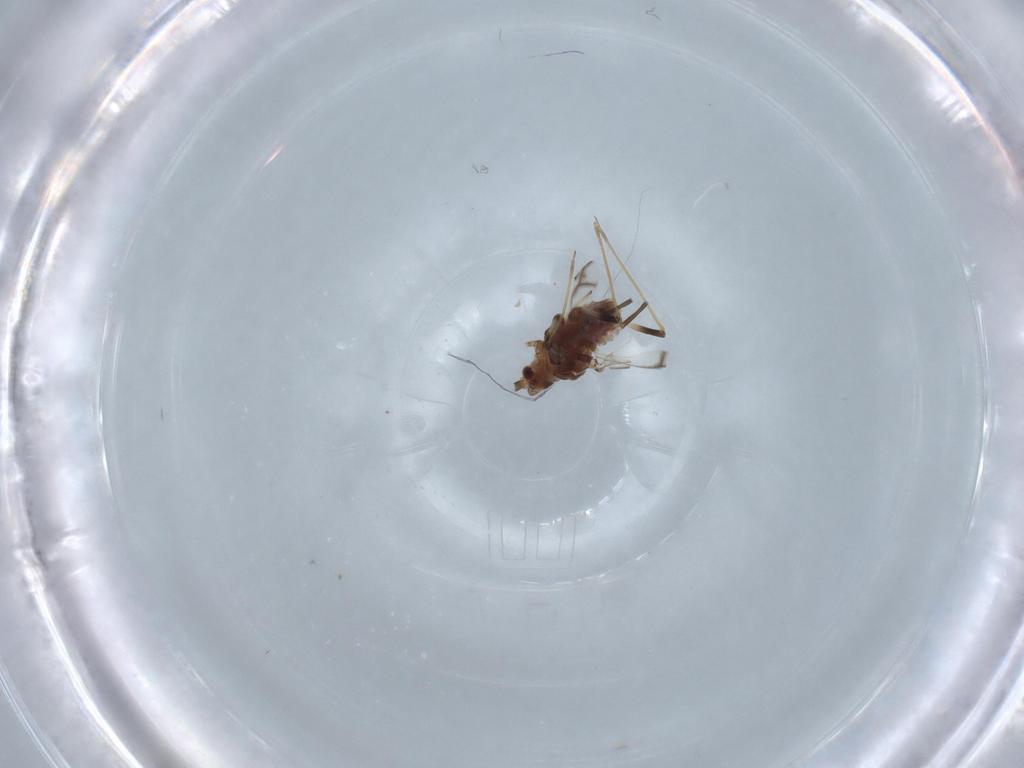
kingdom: Animalia
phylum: Arthropoda
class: Insecta
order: Hemiptera
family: Aphididae
